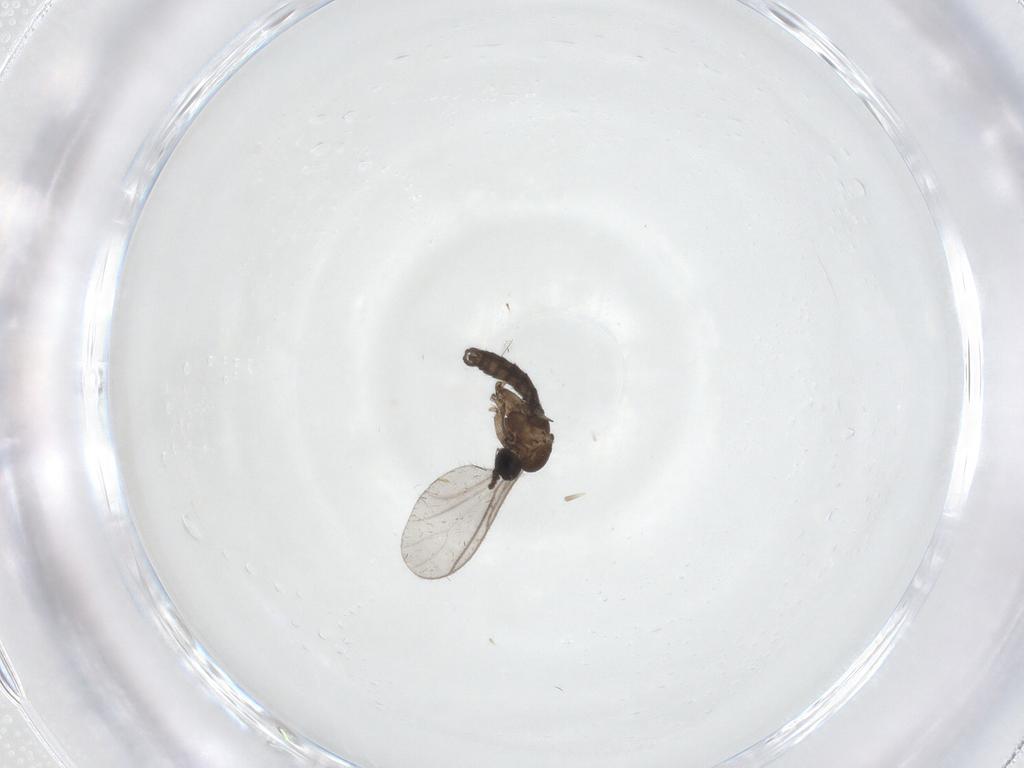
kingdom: Animalia
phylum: Arthropoda
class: Insecta
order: Diptera
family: Sciaridae
